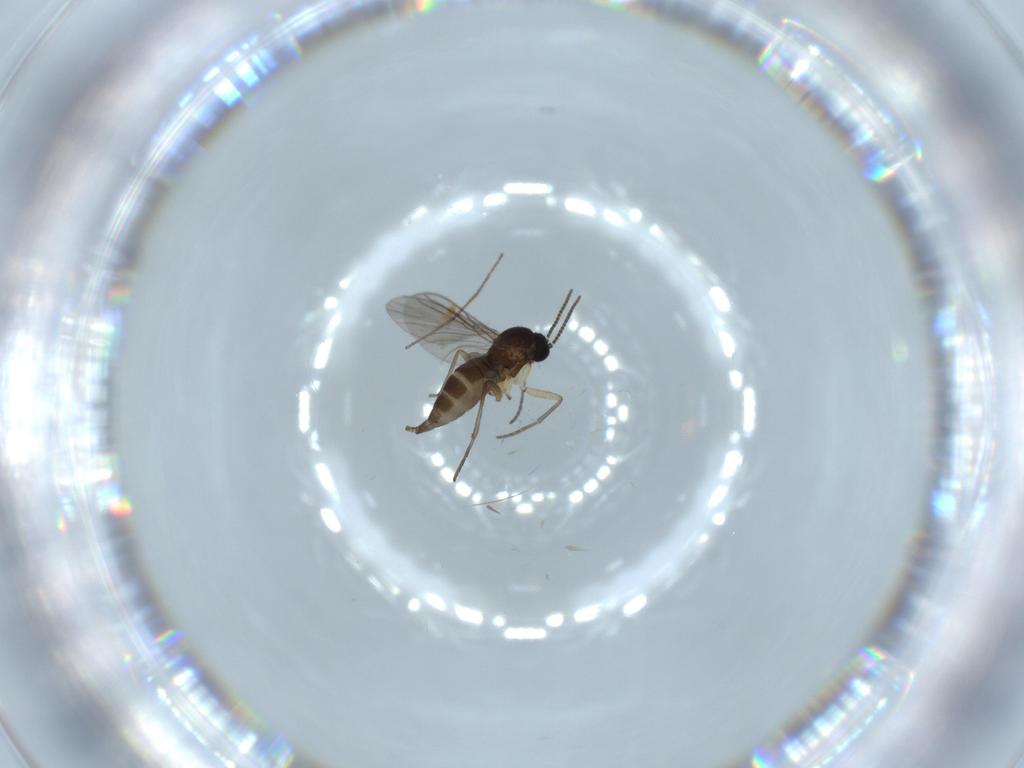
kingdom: Animalia
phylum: Arthropoda
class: Insecta
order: Diptera
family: Sciaridae
